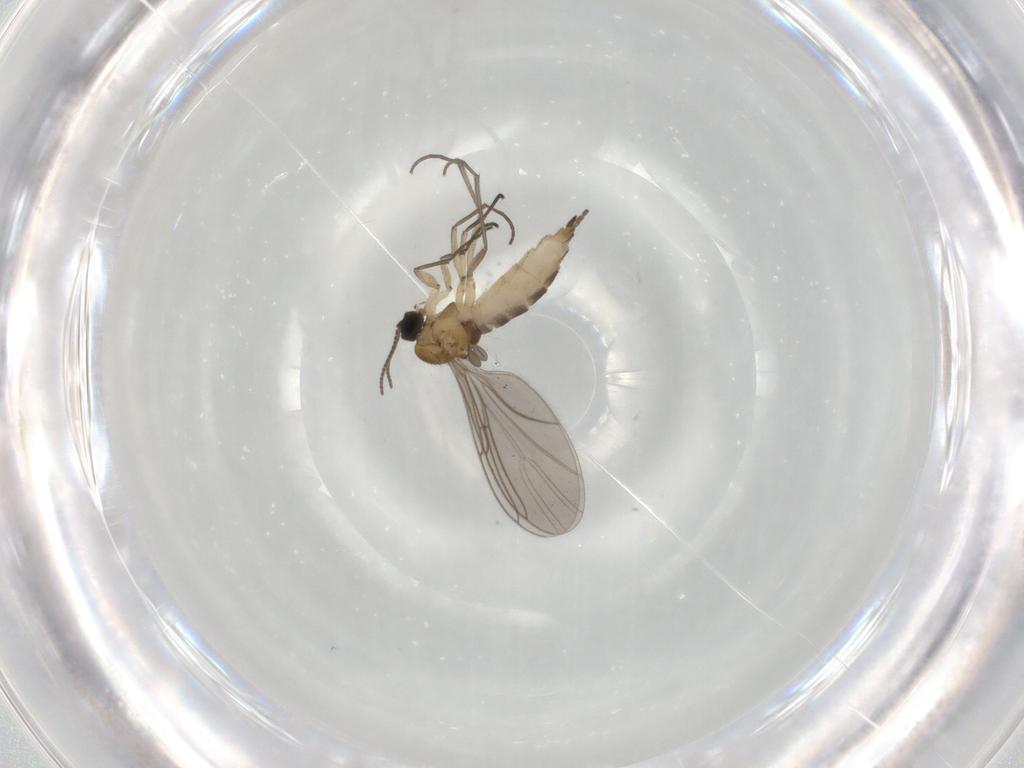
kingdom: Animalia
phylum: Arthropoda
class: Insecta
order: Diptera
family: Sciaridae
